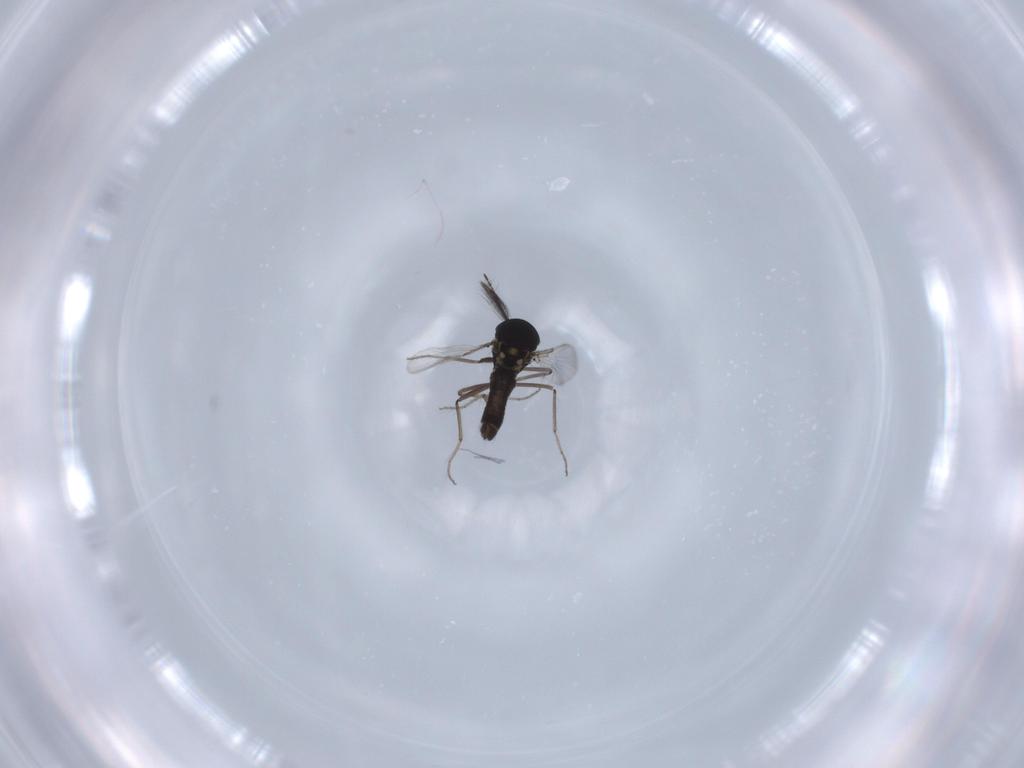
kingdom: Animalia
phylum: Arthropoda
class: Insecta
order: Diptera
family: Ceratopogonidae
